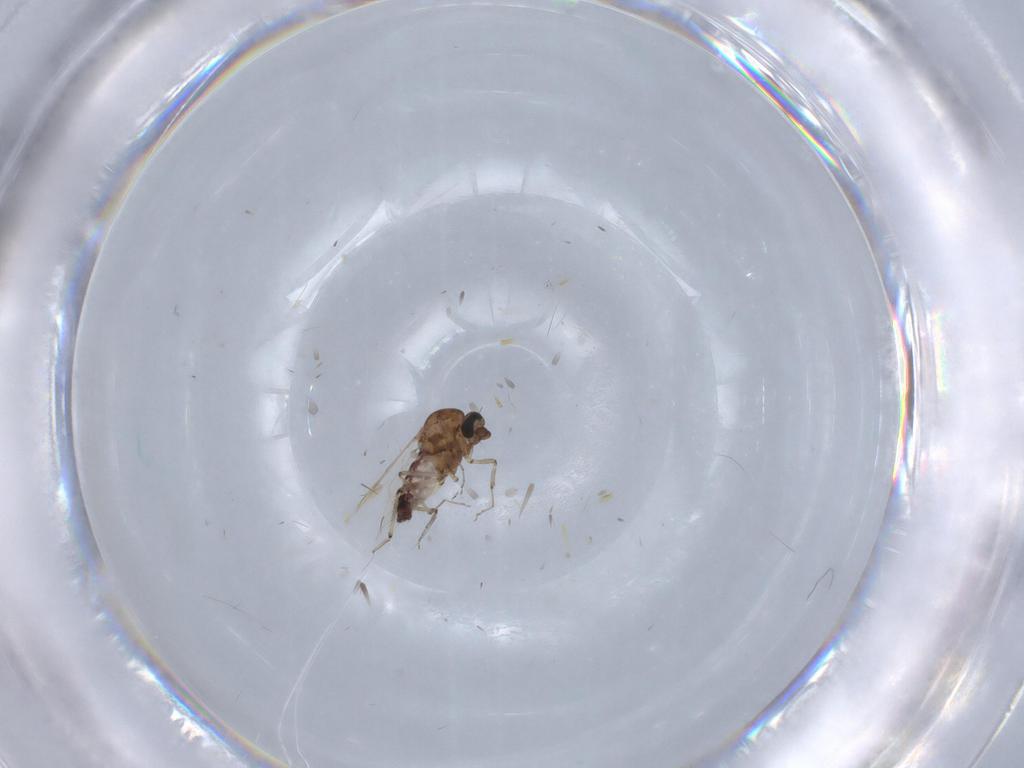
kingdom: Animalia
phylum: Arthropoda
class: Insecta
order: Diptera
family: Ceratopogonidae
